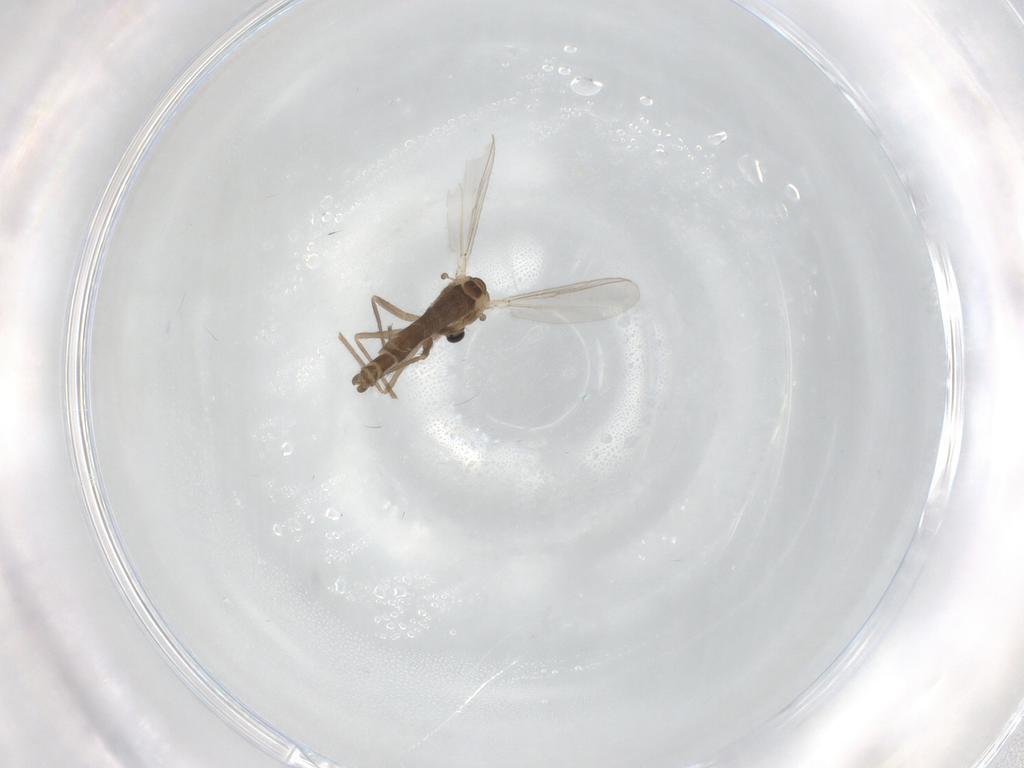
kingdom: Animalia
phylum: Arthropoda
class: Insecta
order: Diptera
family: Chironomidae
